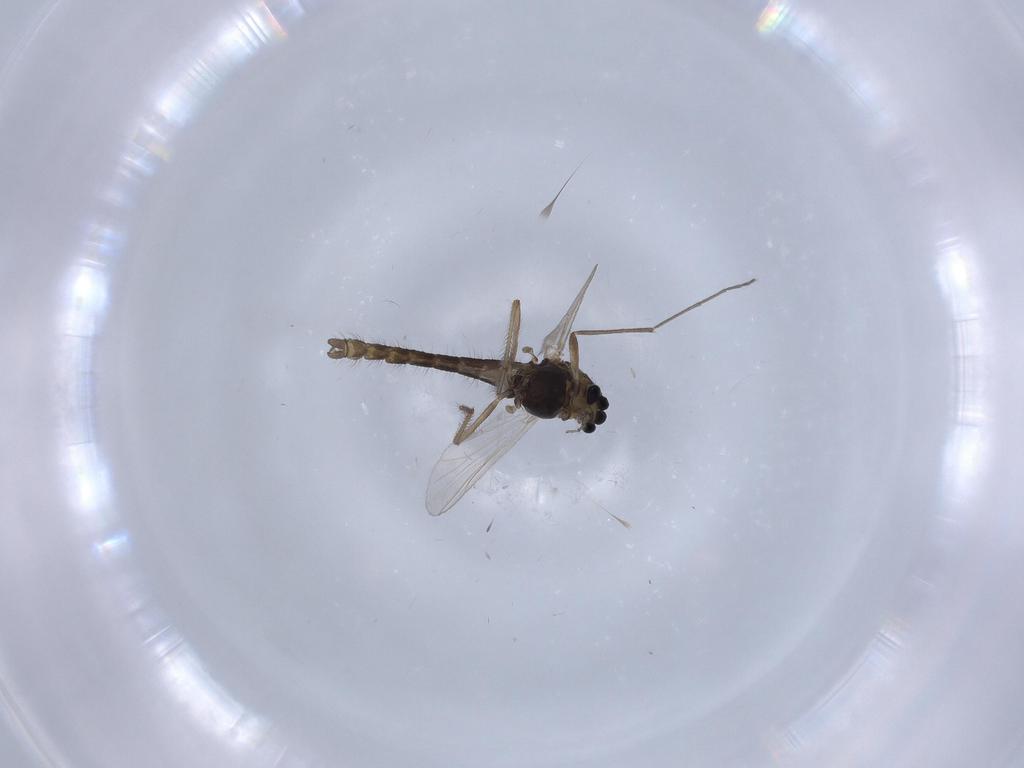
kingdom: Animalia
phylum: Arthropoda
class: Insecta
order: Diptera
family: Chironomidae
